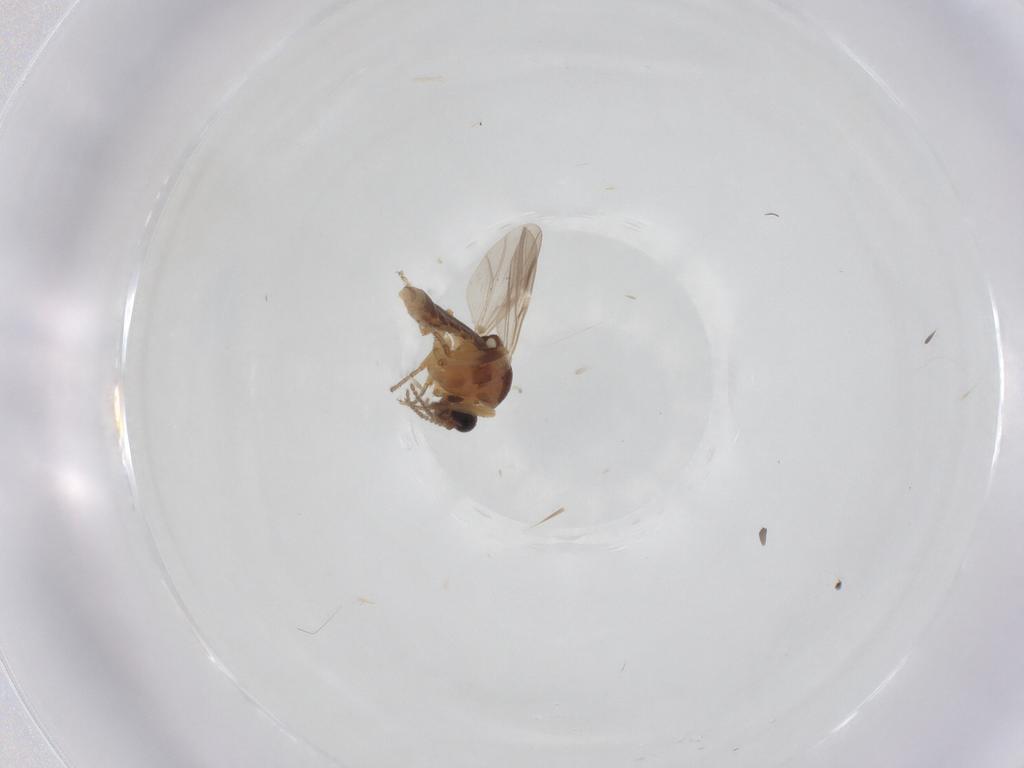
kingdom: Animalia
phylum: Arthropoda
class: Insecta
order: Diptera
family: Ceratopogonidae
